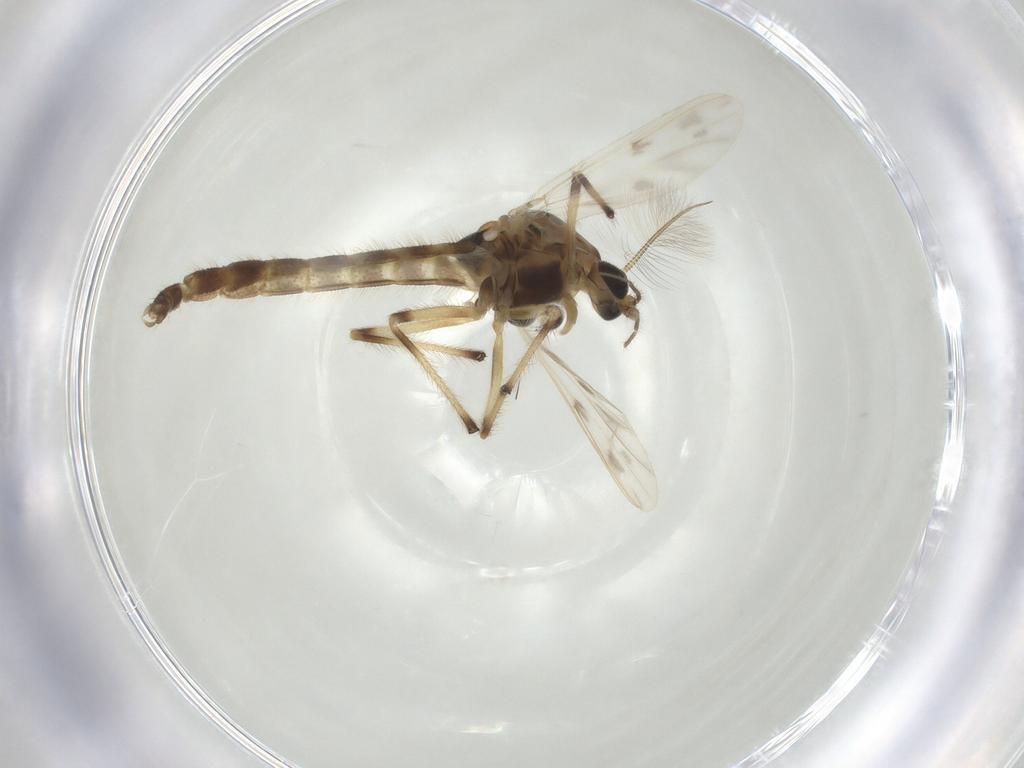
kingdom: Animalia
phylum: Arthropoda
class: Insecta
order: Diptera
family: Chironomidae
